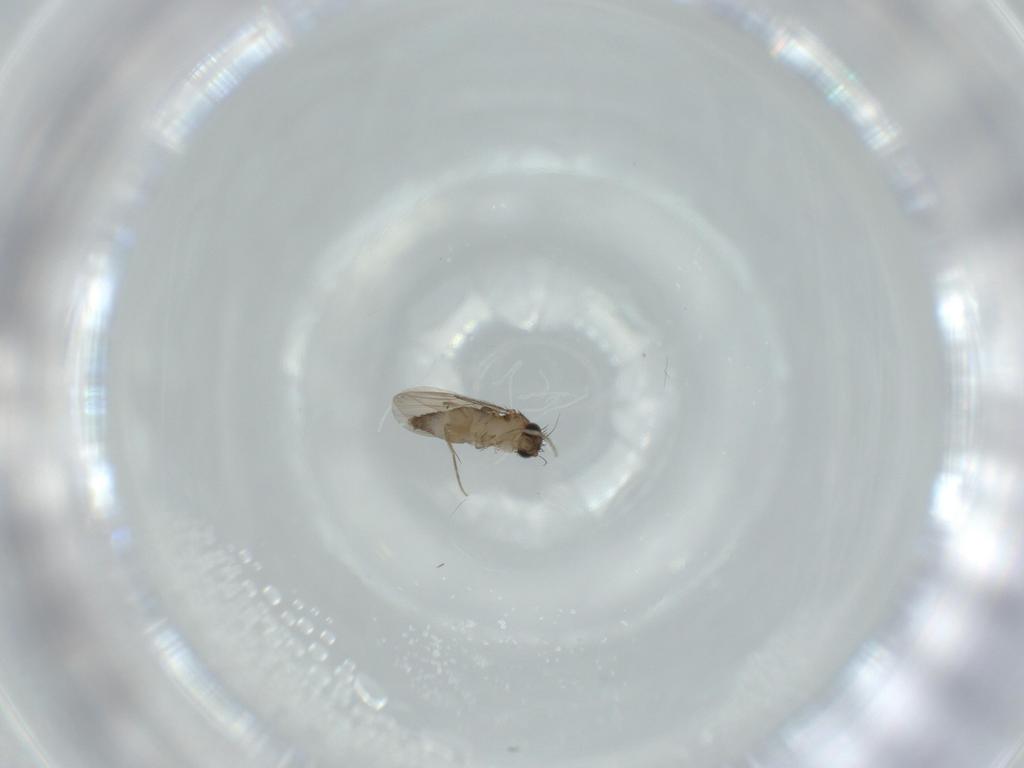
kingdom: Animalia
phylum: Arthropoda
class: Insecta
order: Diptera
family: Phoridae
